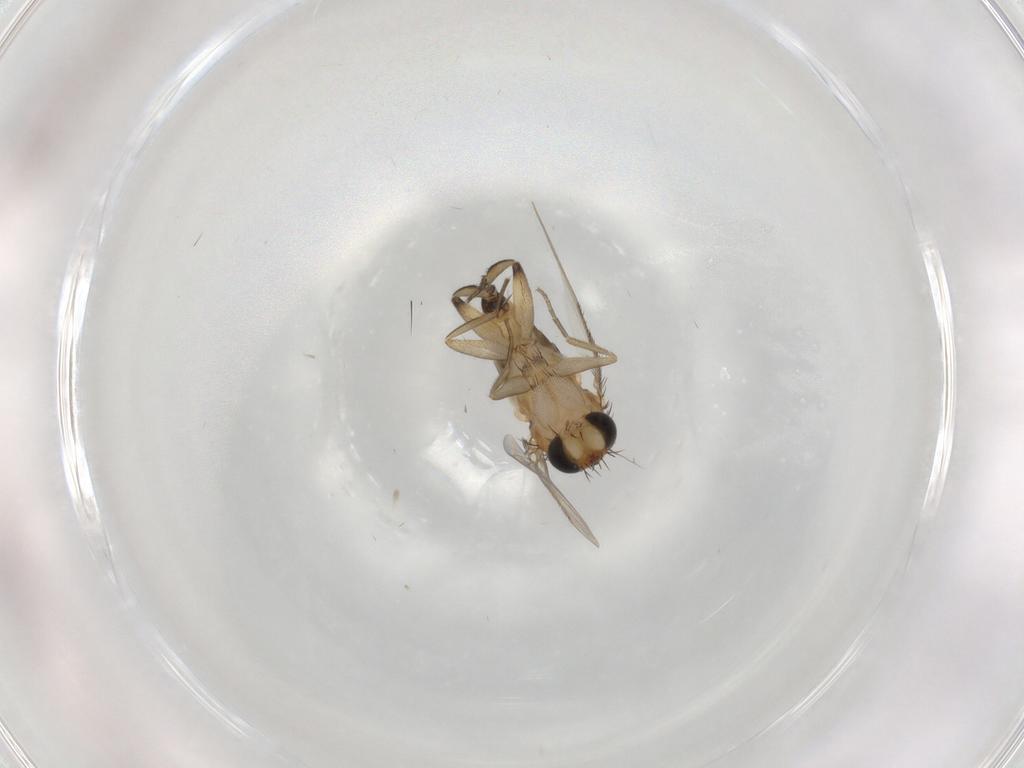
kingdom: Animalia
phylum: Arthropoda
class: Insecta
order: Diptera
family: Phoridae
